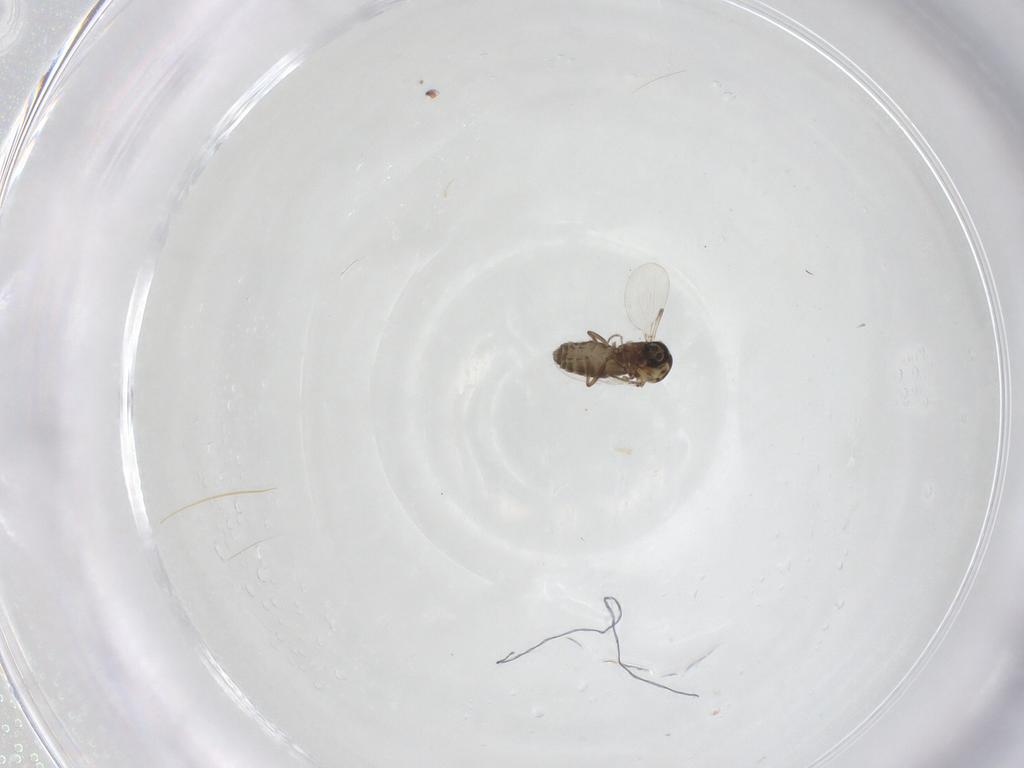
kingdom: Animalia
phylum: Arthropoda
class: Insecta
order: Diptera
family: Ceratopogonidae
